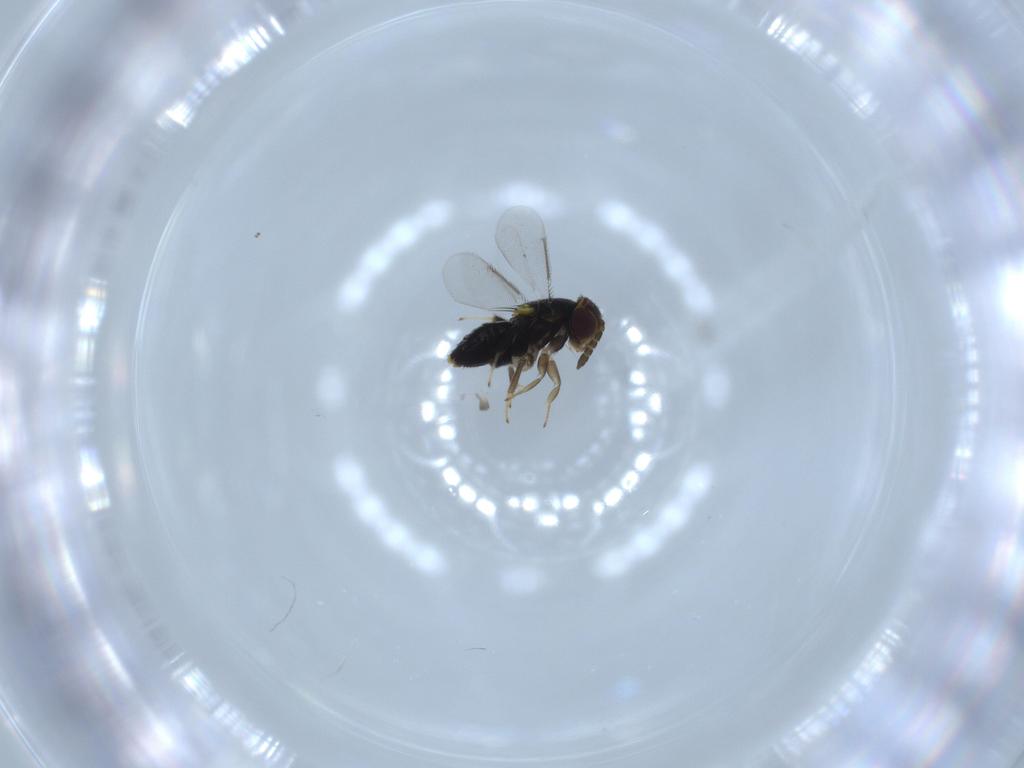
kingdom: Animalia
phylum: Arthropoda
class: Insecta
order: Hymenoptera
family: Aphelinidae
